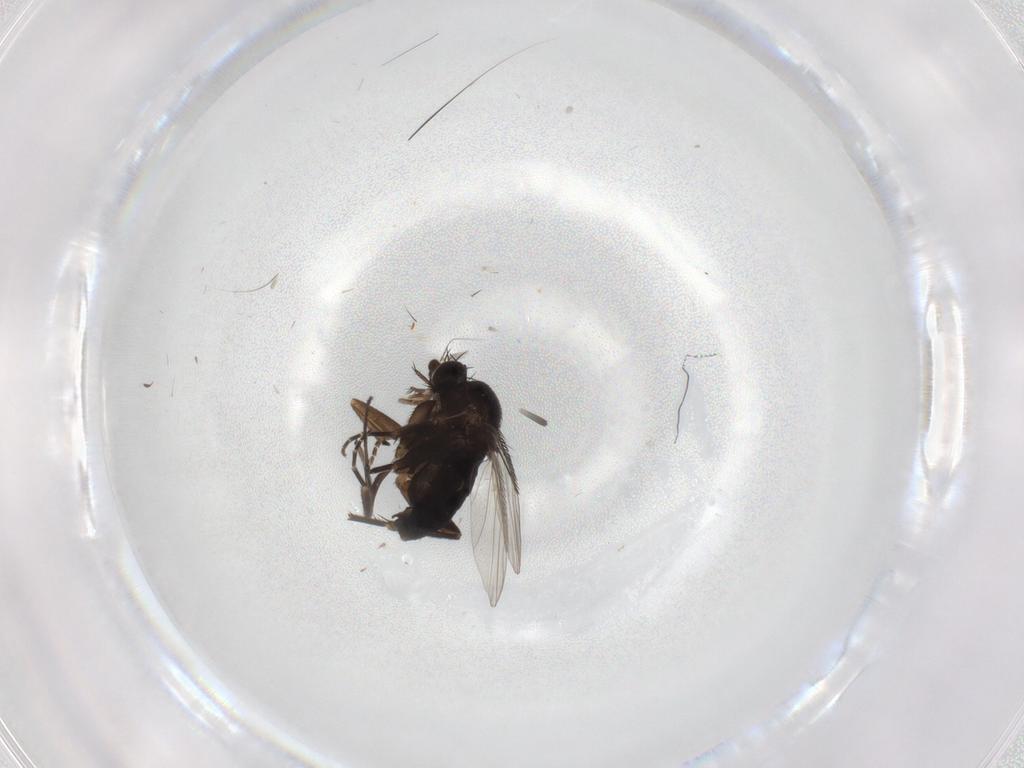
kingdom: Animalia
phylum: Arthropoda
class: Insecta
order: Diptera
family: Phoridae
